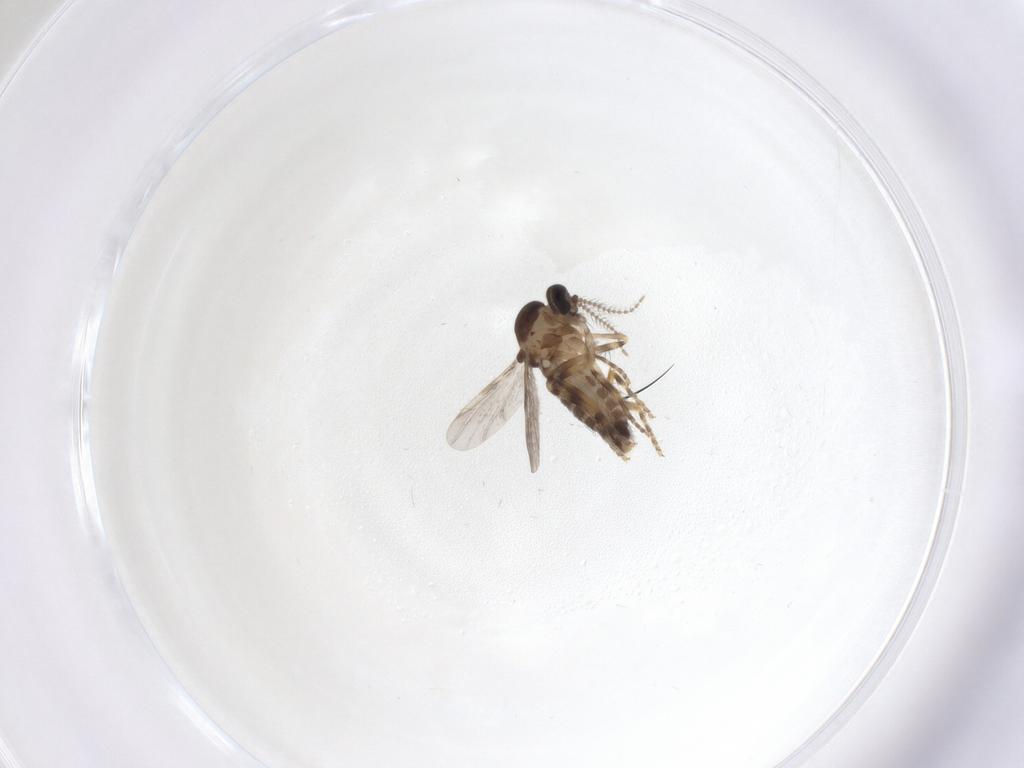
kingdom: Animalia
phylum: Arthropoda
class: Insecta
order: Diptera
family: Ceratopogonidae
